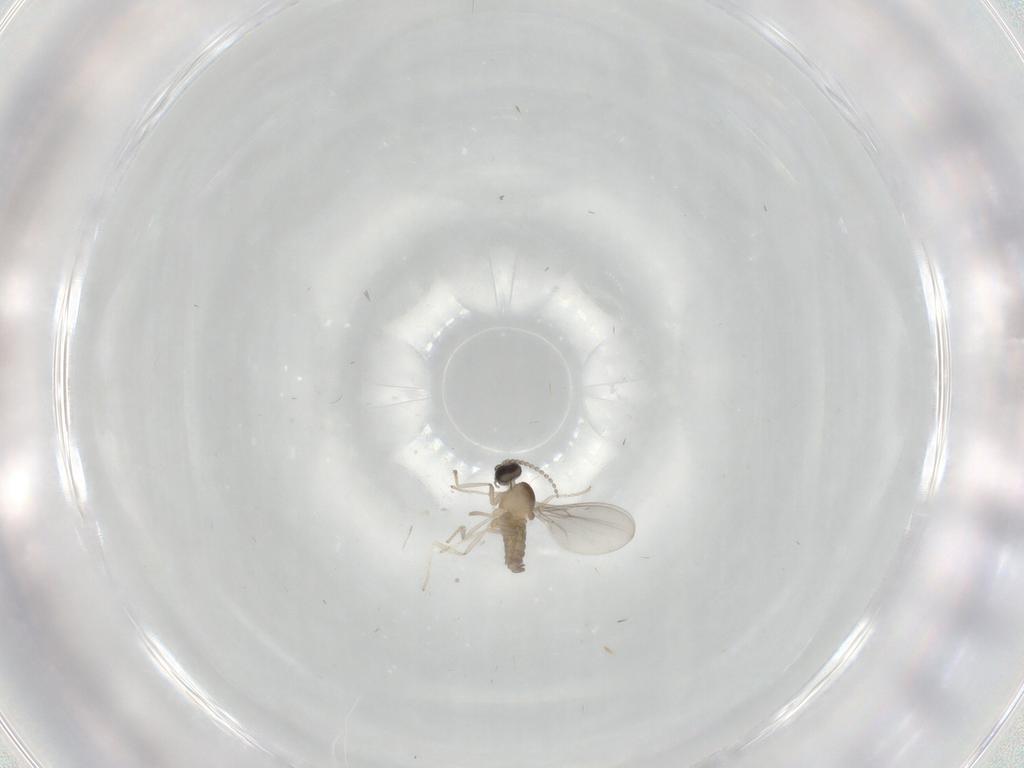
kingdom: Animalia
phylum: Arthropoda
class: Insecta
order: Diptera
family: Cecidomyiidae
